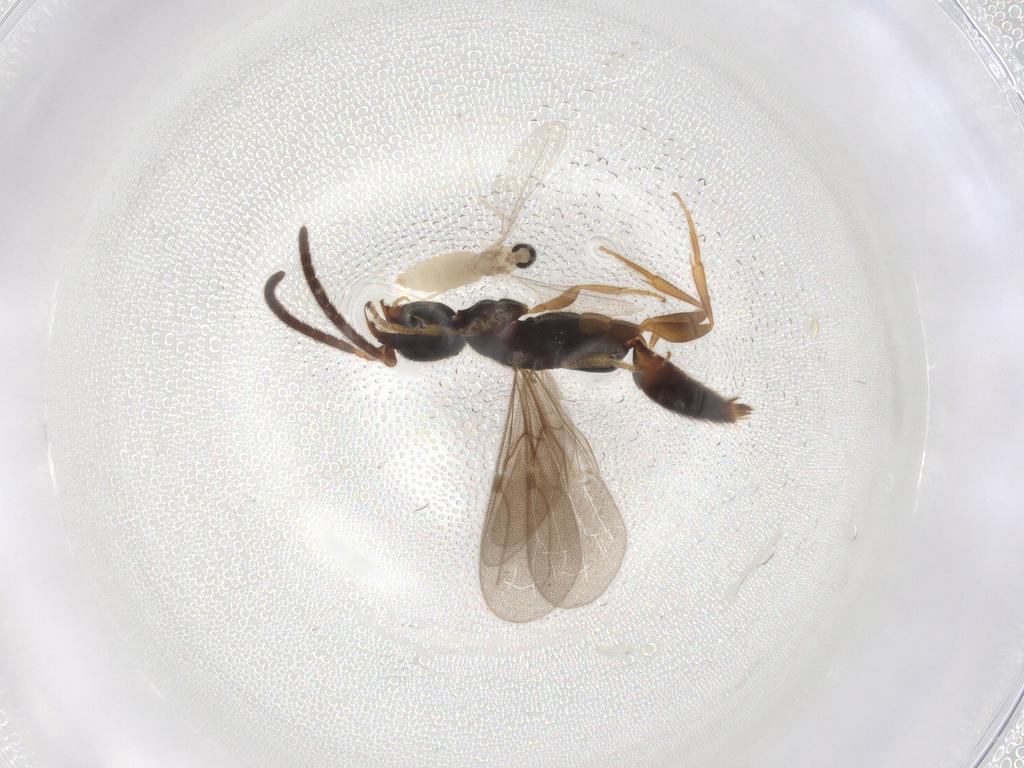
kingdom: Animalia
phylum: Arthropoda
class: Insecta
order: Hymenoptera
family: Bethylidae
